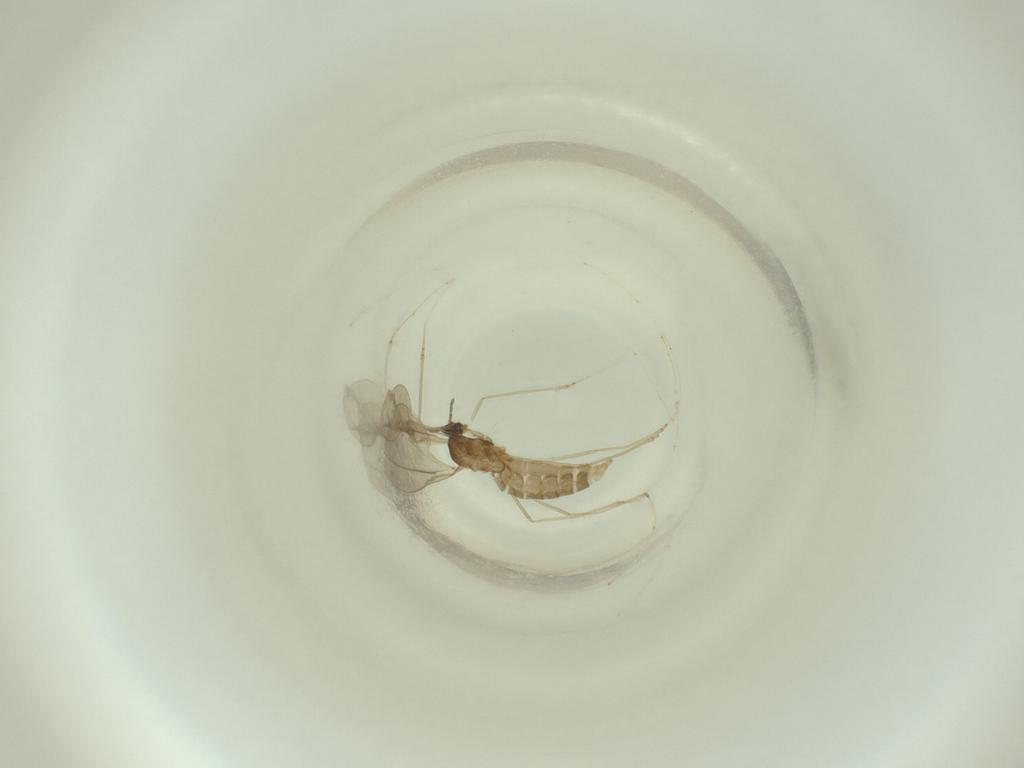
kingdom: Animalia
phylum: Arthropoda
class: Insecta
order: Diptera
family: Cecidomyiidae
